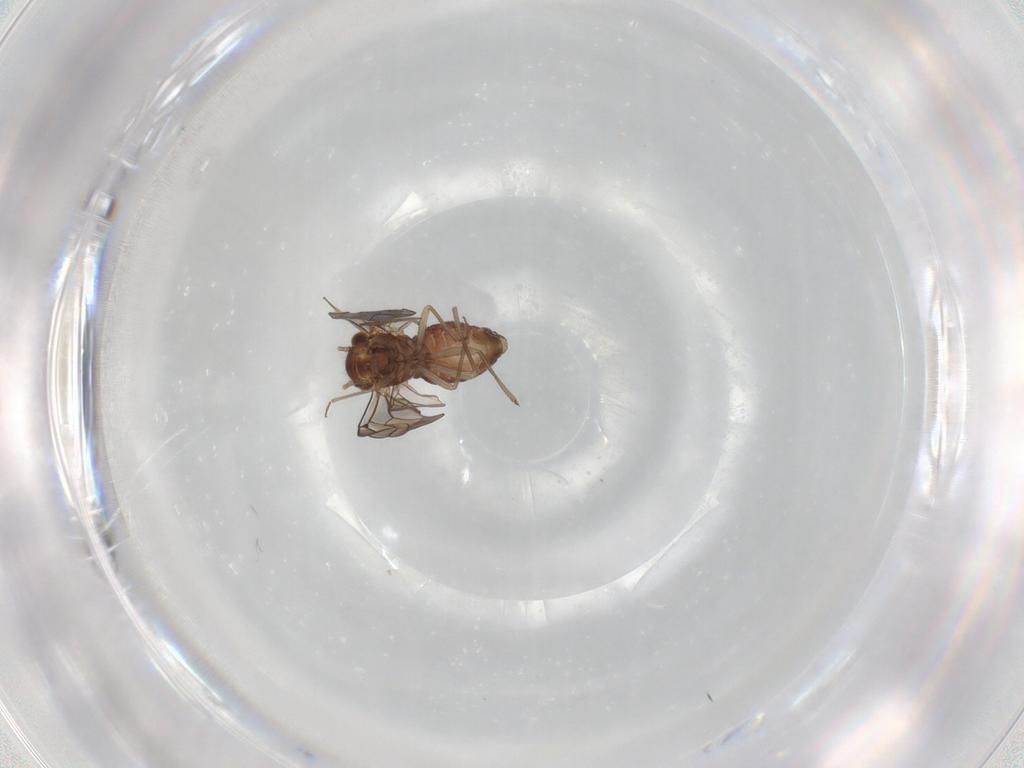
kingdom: Animalia
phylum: Arthropoda
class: Insecta
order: Psocodea
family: Lachesillidae
